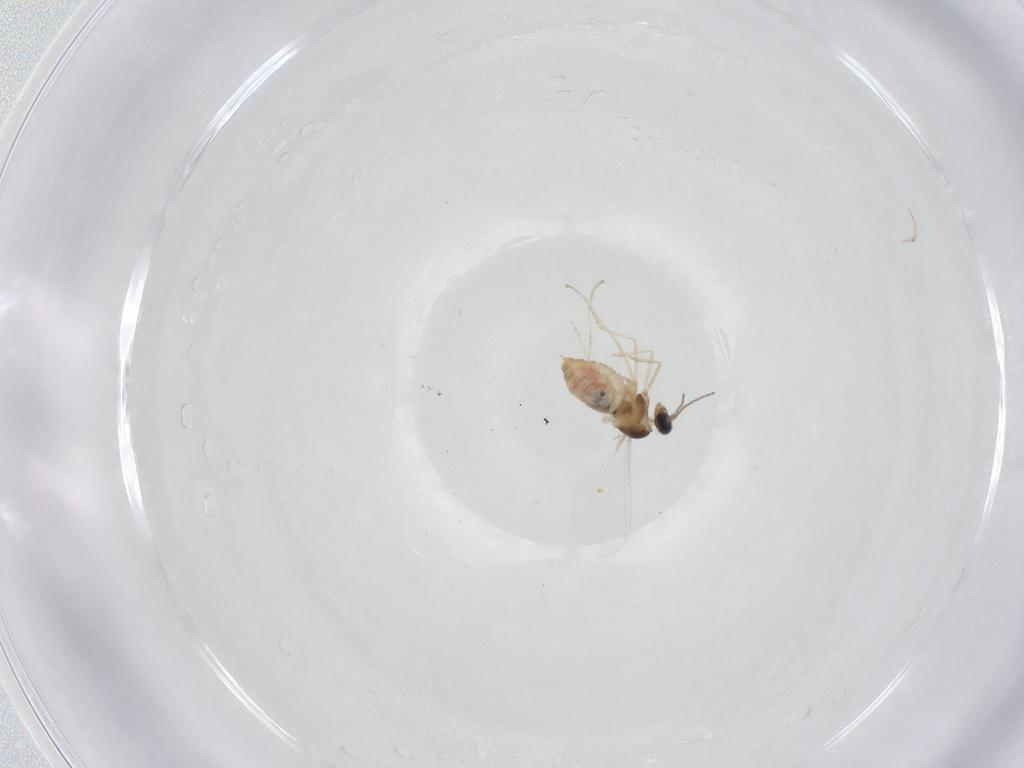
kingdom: Animalia
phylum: Arthropoda
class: Insecta
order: Diptera
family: Cecidomyiidae
